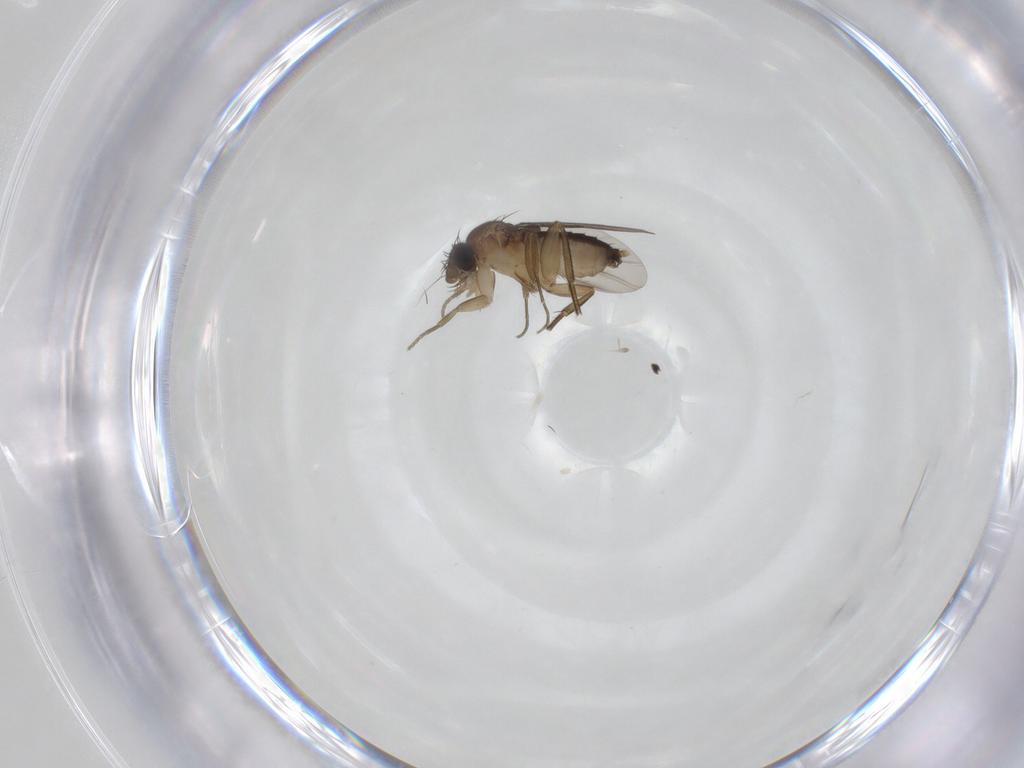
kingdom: Animalia
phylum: Arthropoda
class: Insecta
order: Diptera
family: Phoridae
